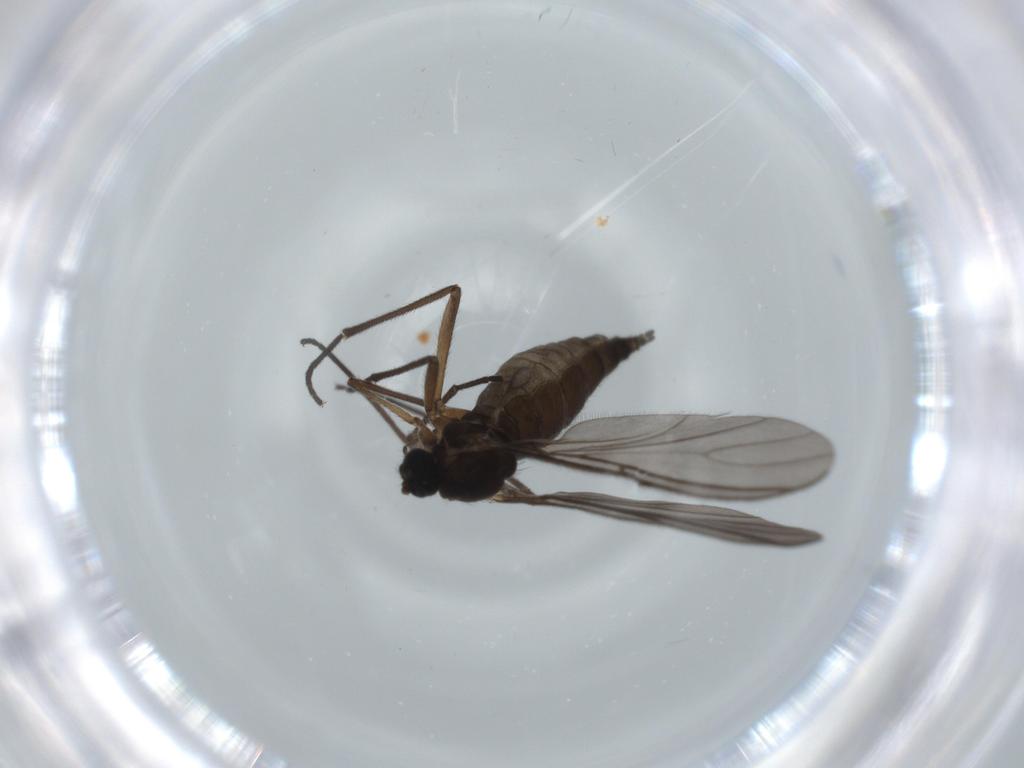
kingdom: Animalia
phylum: Arthropoda
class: Insecta
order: Diptera
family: Sciaridae
